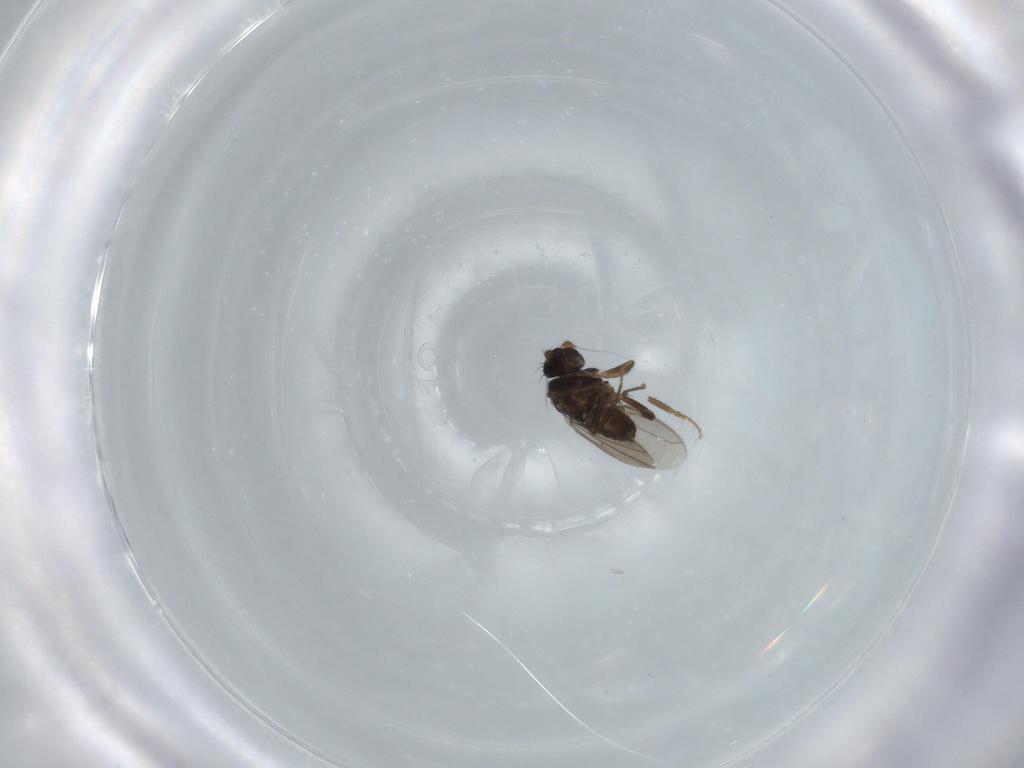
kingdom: Animalia
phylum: Arthropoda
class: Insecta
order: Diptera
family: Sphaeroceridae
